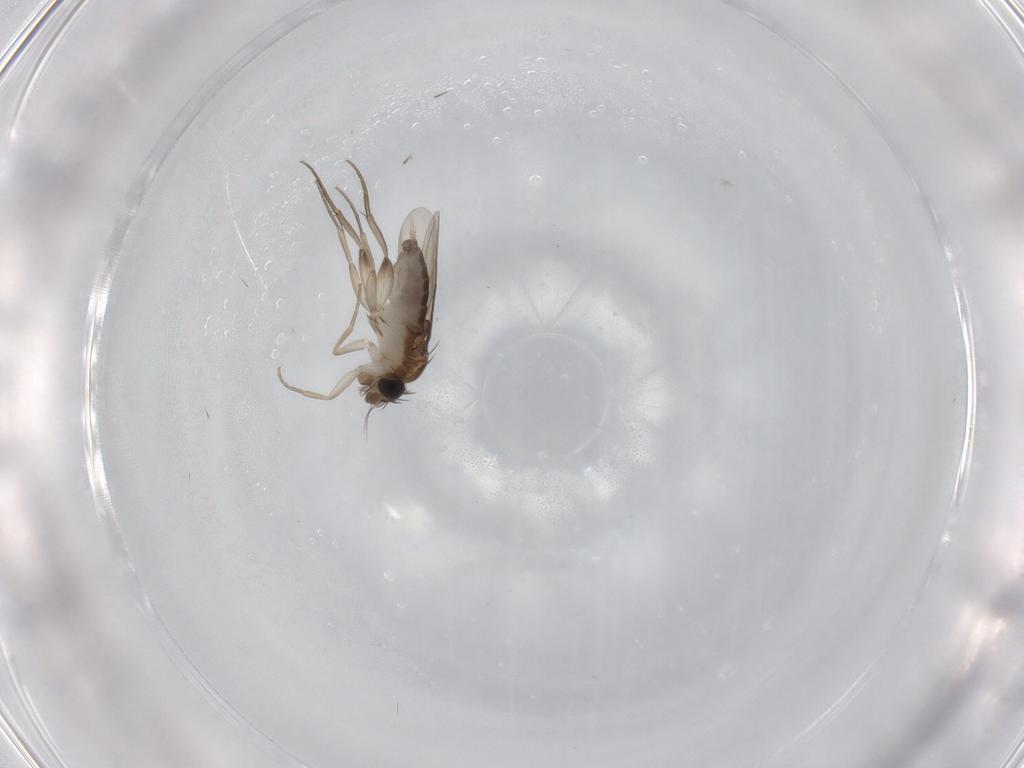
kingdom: Animalia
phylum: Arthropoda
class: Insecta
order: Diptera
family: Phoridae
